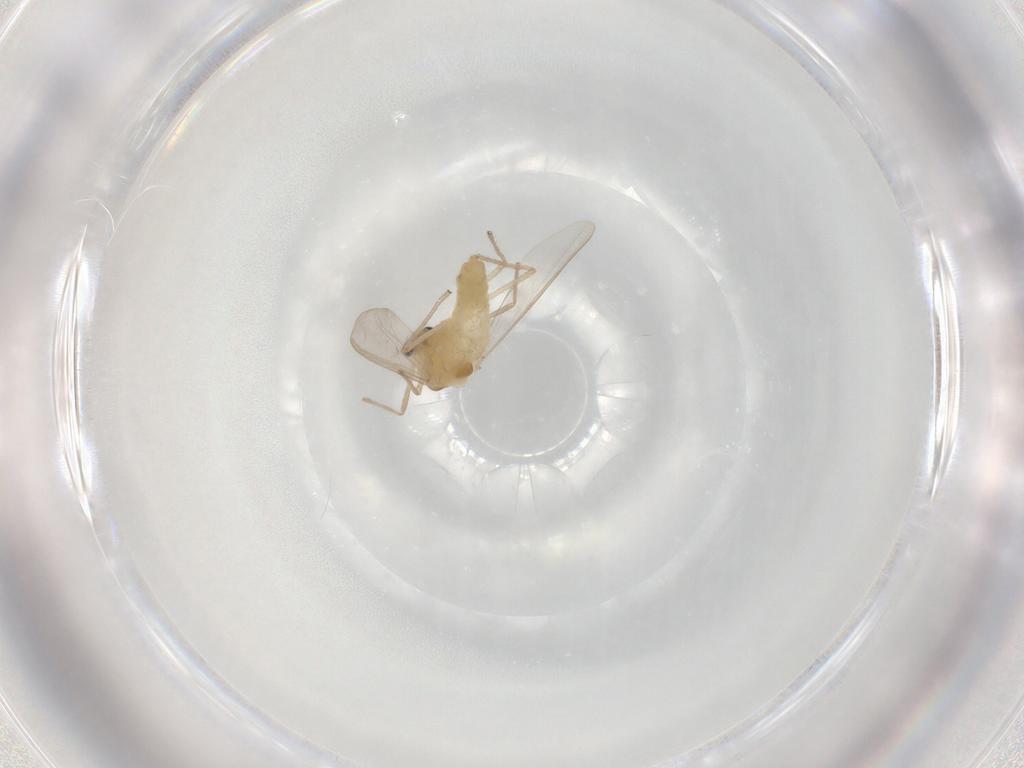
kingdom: Animalia
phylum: Arthropoda
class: Insecta
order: Diptera
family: Chironomidae
